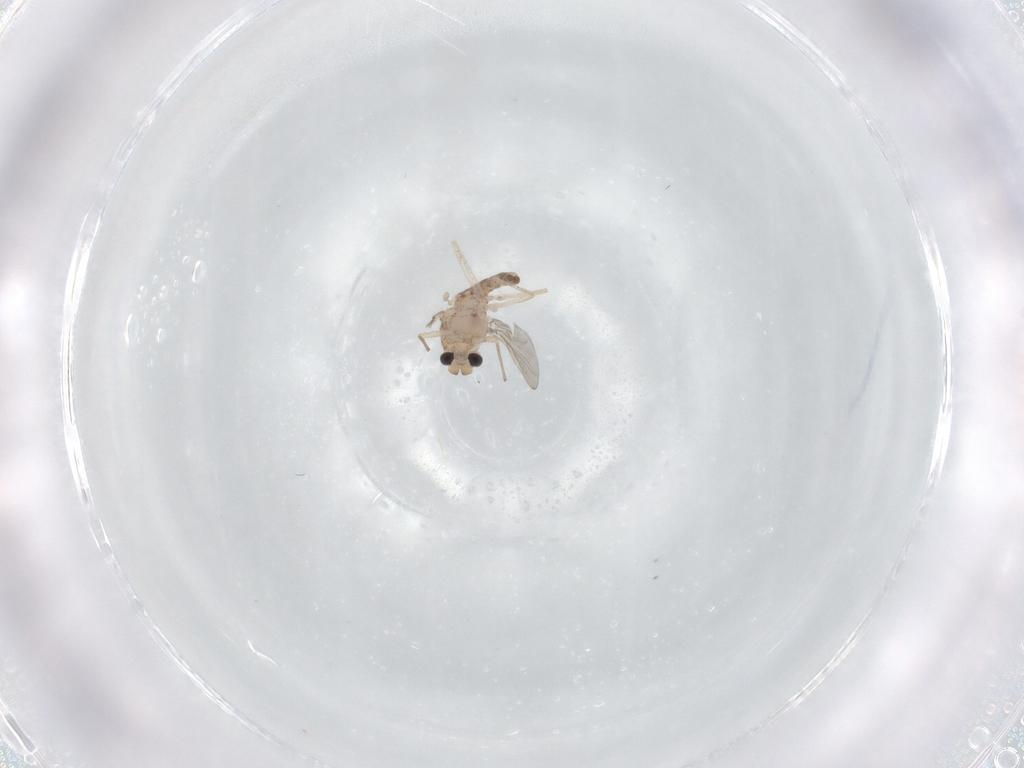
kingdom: Animalia
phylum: Arthropoda
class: Insecta
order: Diptera
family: Chironomidae
